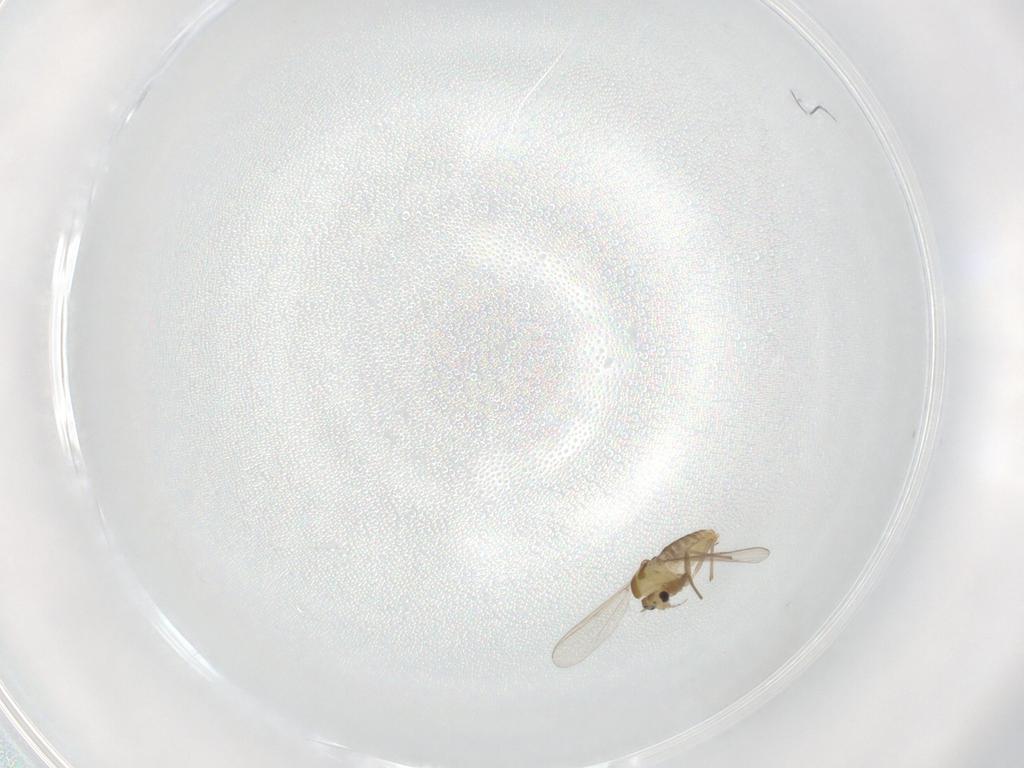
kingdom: Animalia
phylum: Arthropoda
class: Insecta
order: Diptera
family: Chironomidae
